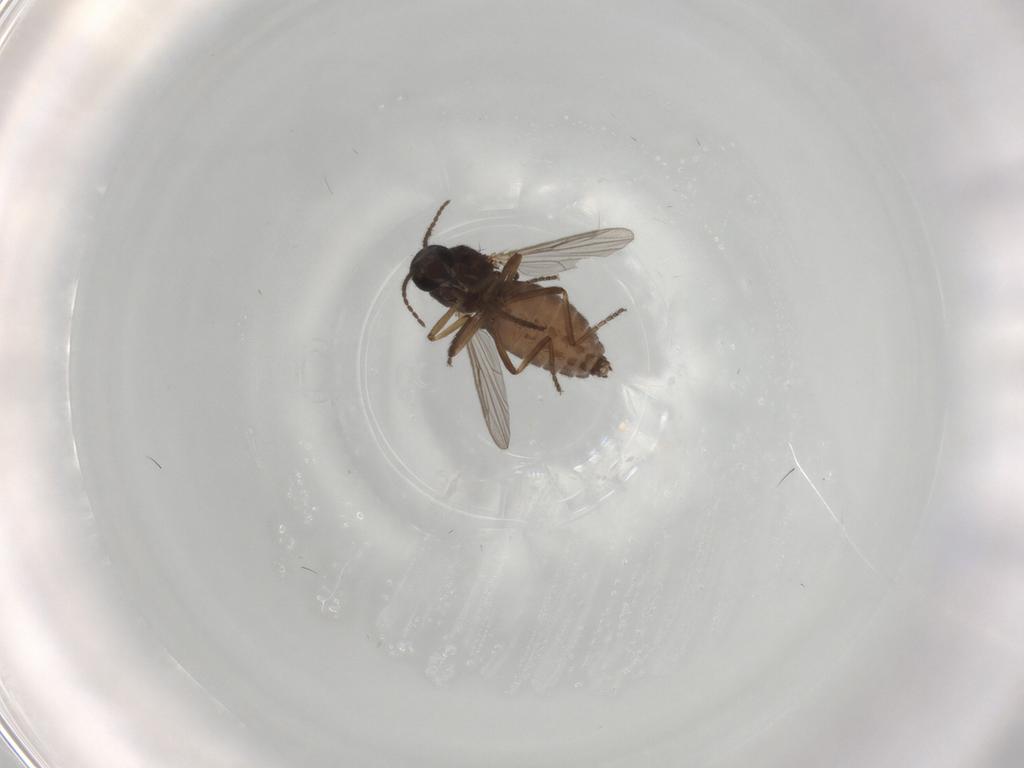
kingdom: Animalia
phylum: Arthropoda
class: Insecta
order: Diptera
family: Ceratopogonidae
